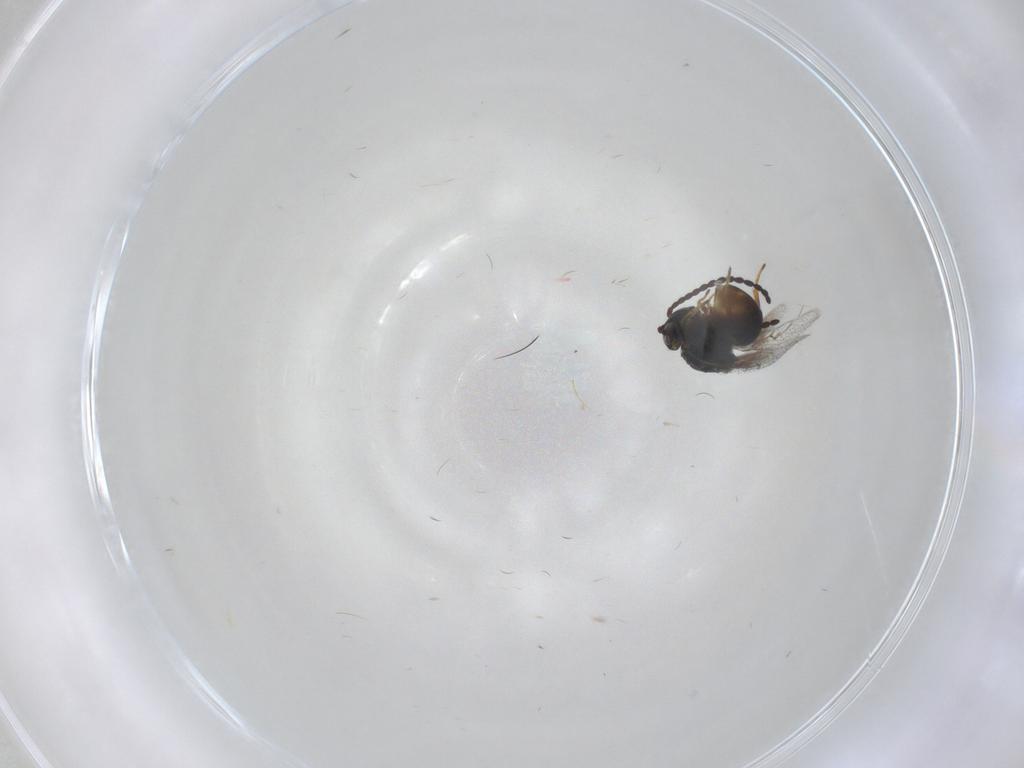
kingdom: Animalia
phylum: Arthropoda
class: Insecta
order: Hymenoptera
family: Figitidae
